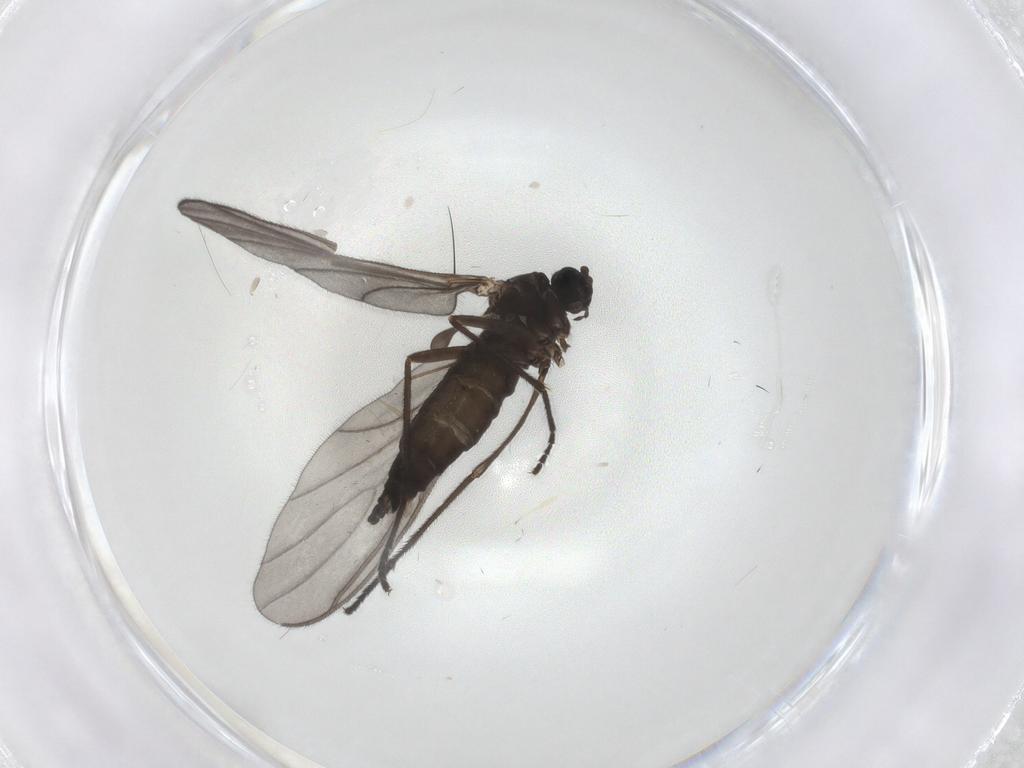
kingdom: Animalia
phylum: Arthropoda
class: Insecta
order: Diptera
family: Sciaridae
